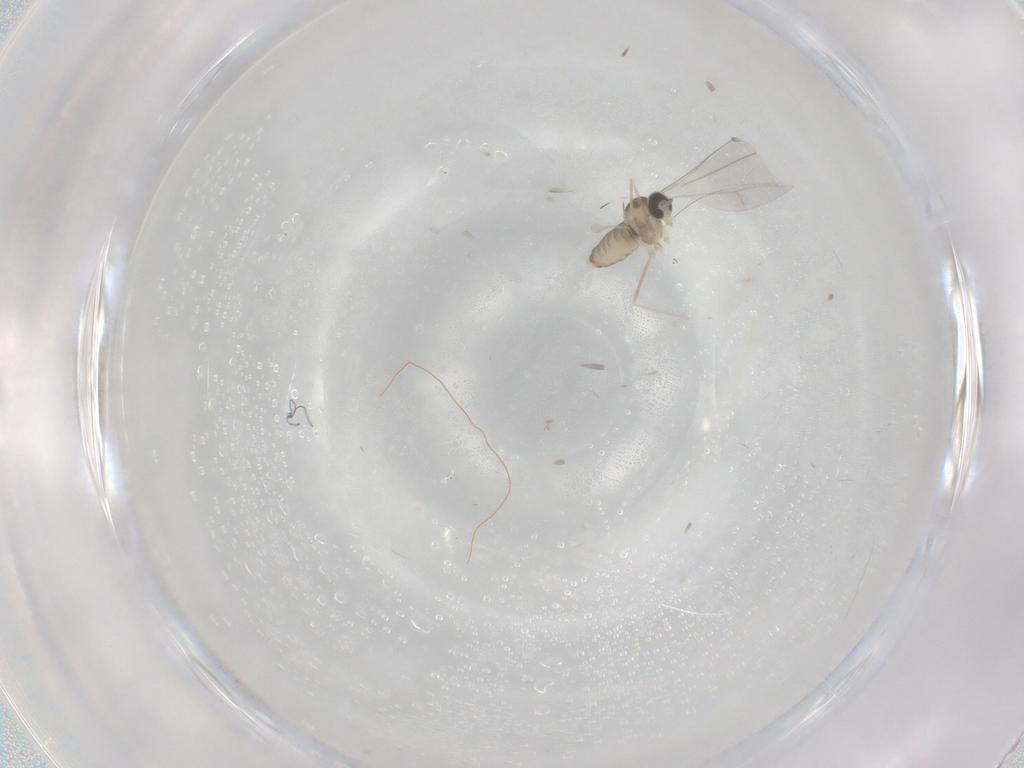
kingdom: Animalia
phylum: Arthropoda
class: Insecta
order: Diptera
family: Cecidomyiidae
